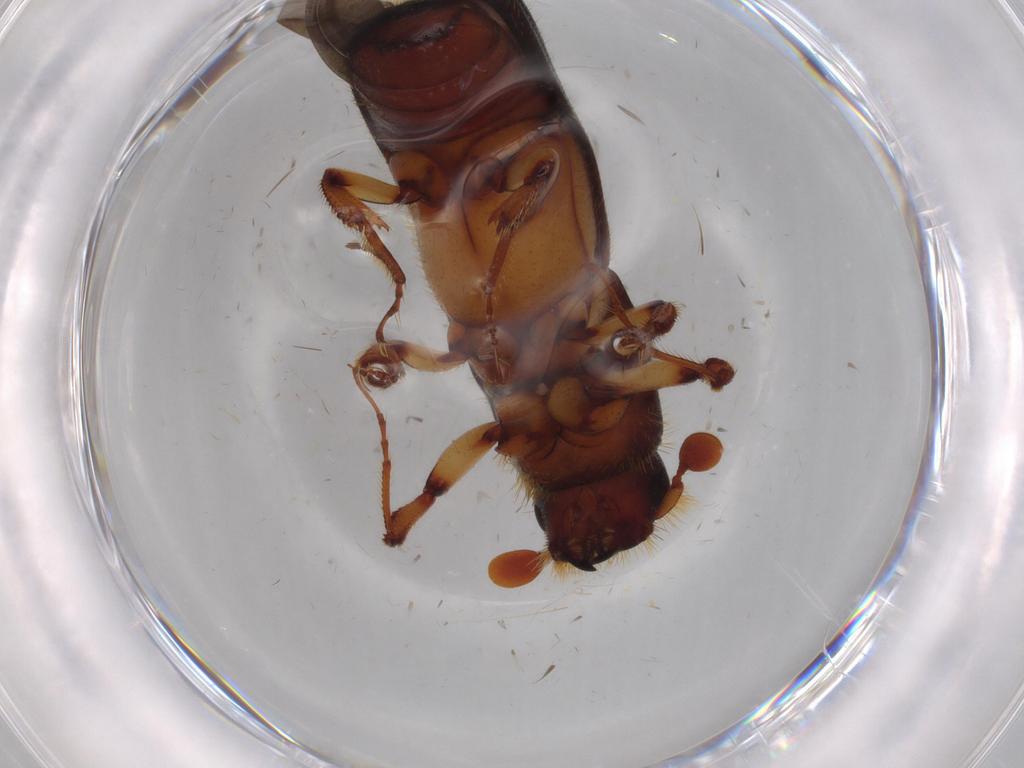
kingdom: Animalia
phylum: Arthropoda
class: Insecta
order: Coleoptera
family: Curculionidae
